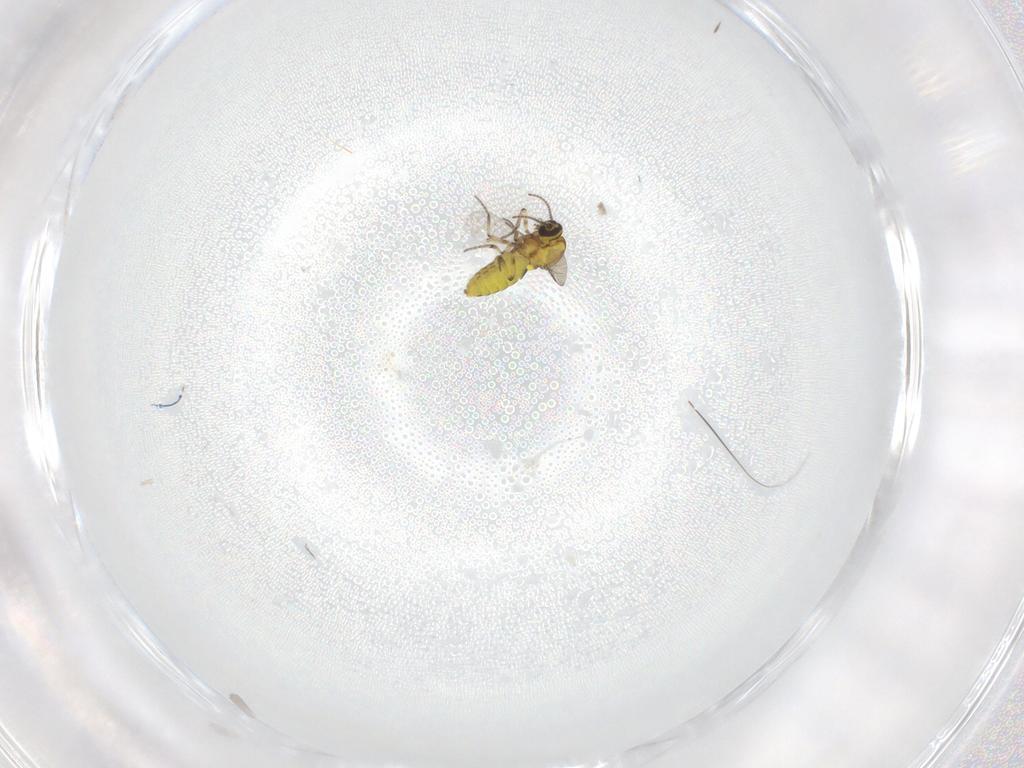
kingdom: Animalia
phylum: Arthropoda
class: Insecta
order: Diptera
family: Ceratopogonidae
